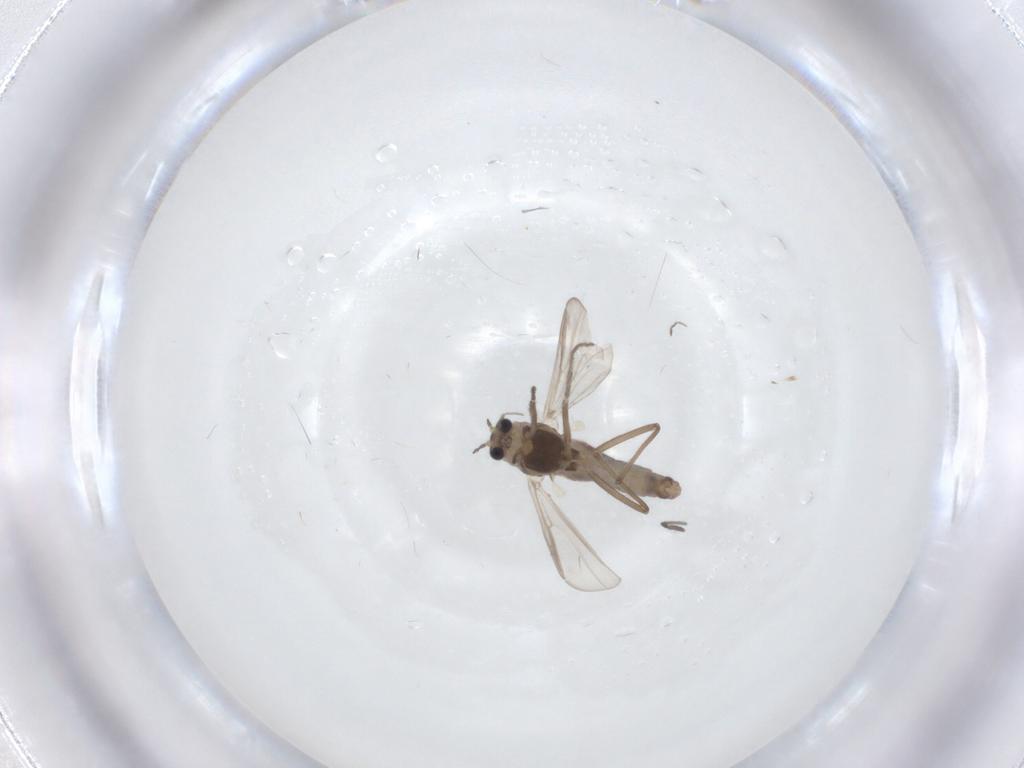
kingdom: Animalia
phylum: Arthropoda
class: Insecta
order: Diptera
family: Chironomidae
